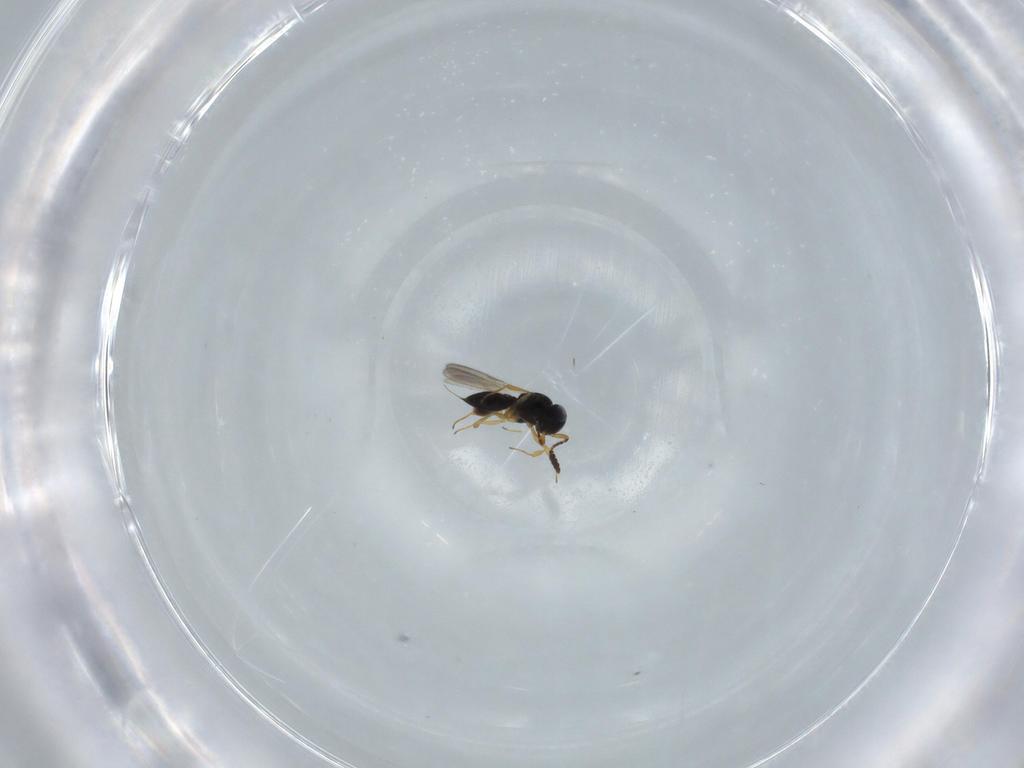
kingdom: Animalia
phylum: Arthropoda
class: Insecta
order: Hymenoptera
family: Scelionidae
